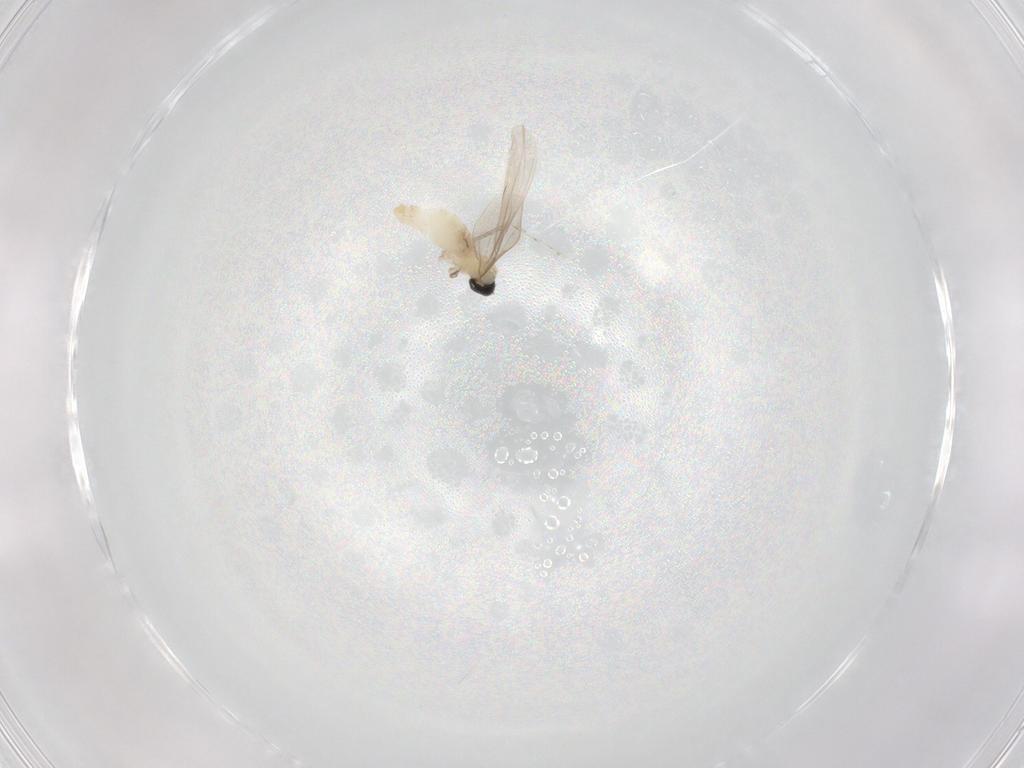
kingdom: Animalia
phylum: Arthropoda
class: Insecta
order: Diptera
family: Cecidomyiidae
